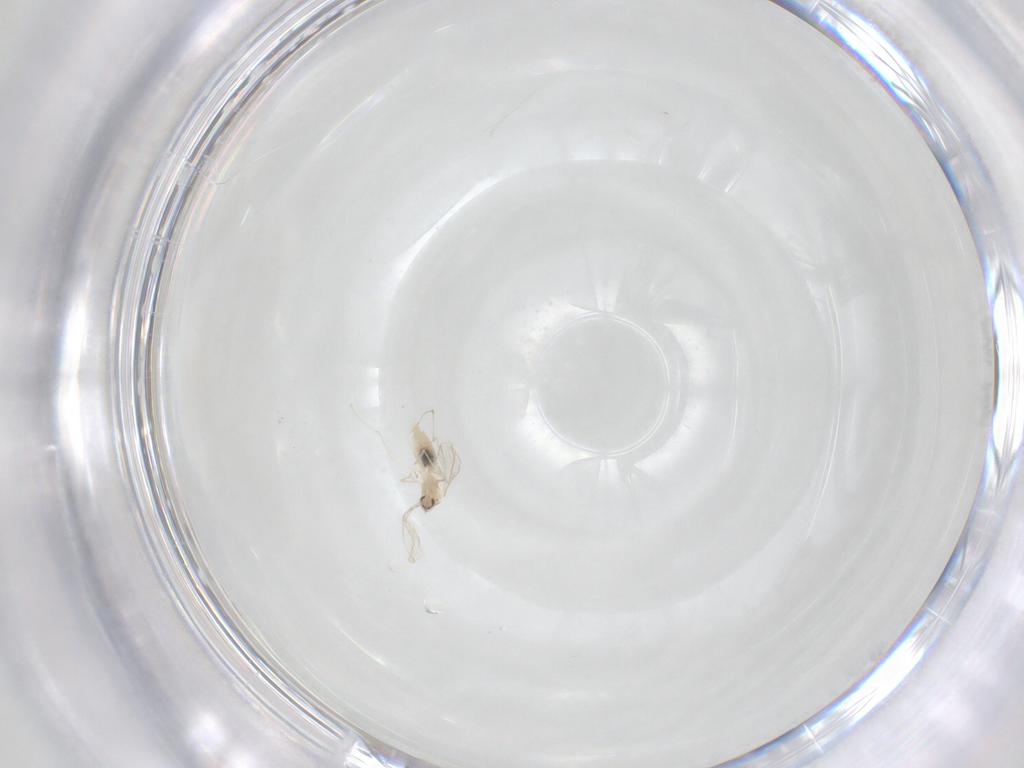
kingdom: Animalia
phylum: Arthropoda
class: Insecta
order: Diptera
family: Cecidomyiidae
